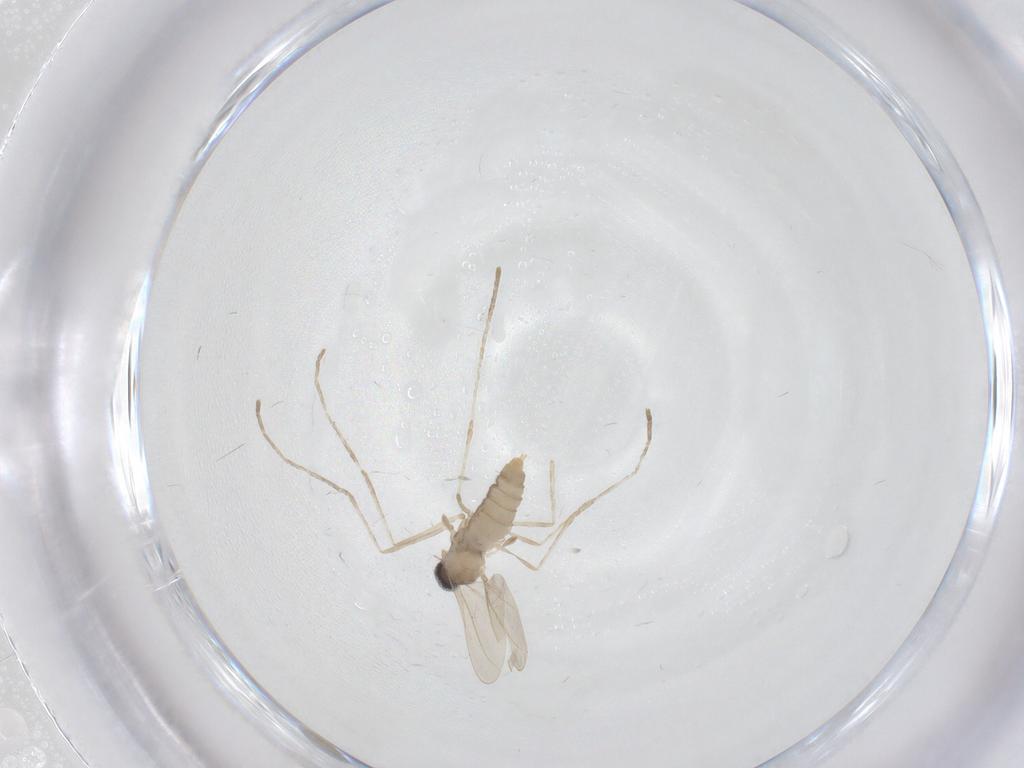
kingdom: Animalia
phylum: Arthropoda
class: Insecta
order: Diptera
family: Cecidomyiidae
